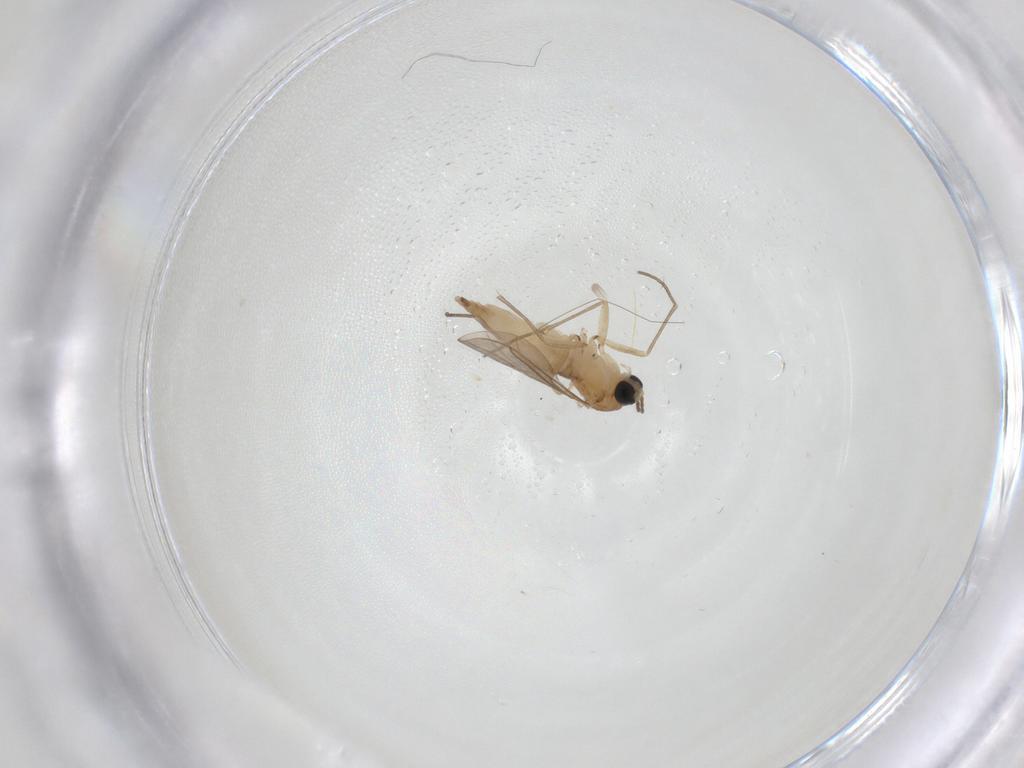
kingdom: Animalia
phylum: Arthropoda
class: Insecta
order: Diptera
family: Sciaridae
